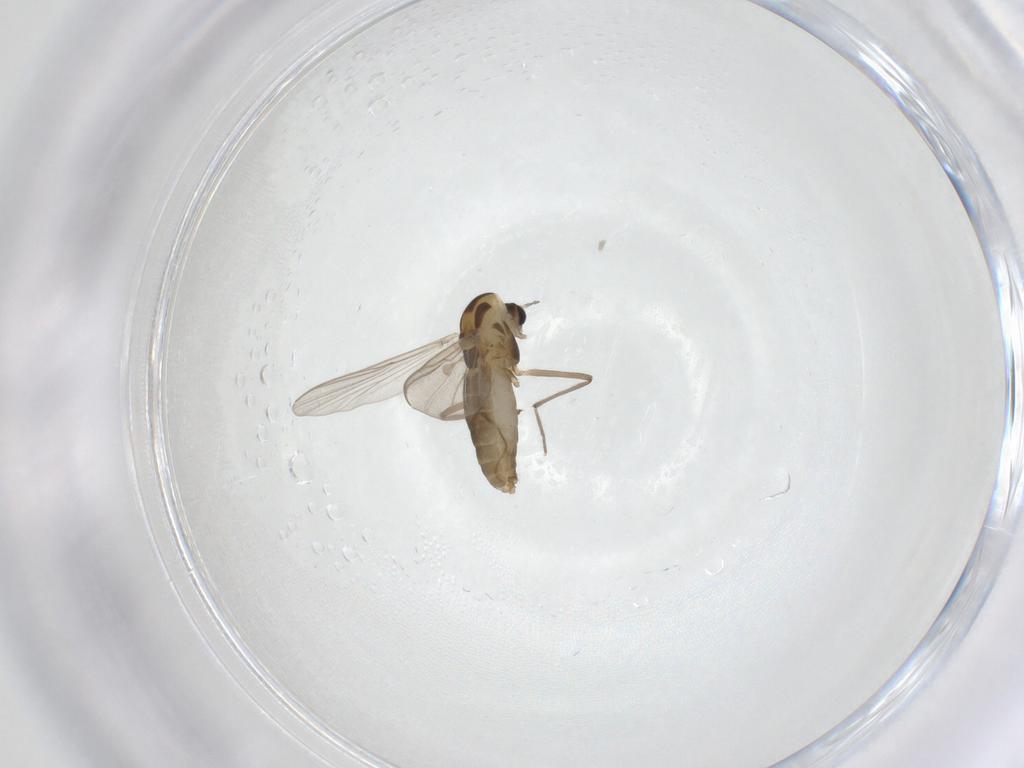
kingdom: Animalia
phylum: Arthropoda
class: Insecta
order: Diptera
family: Chironomidae
